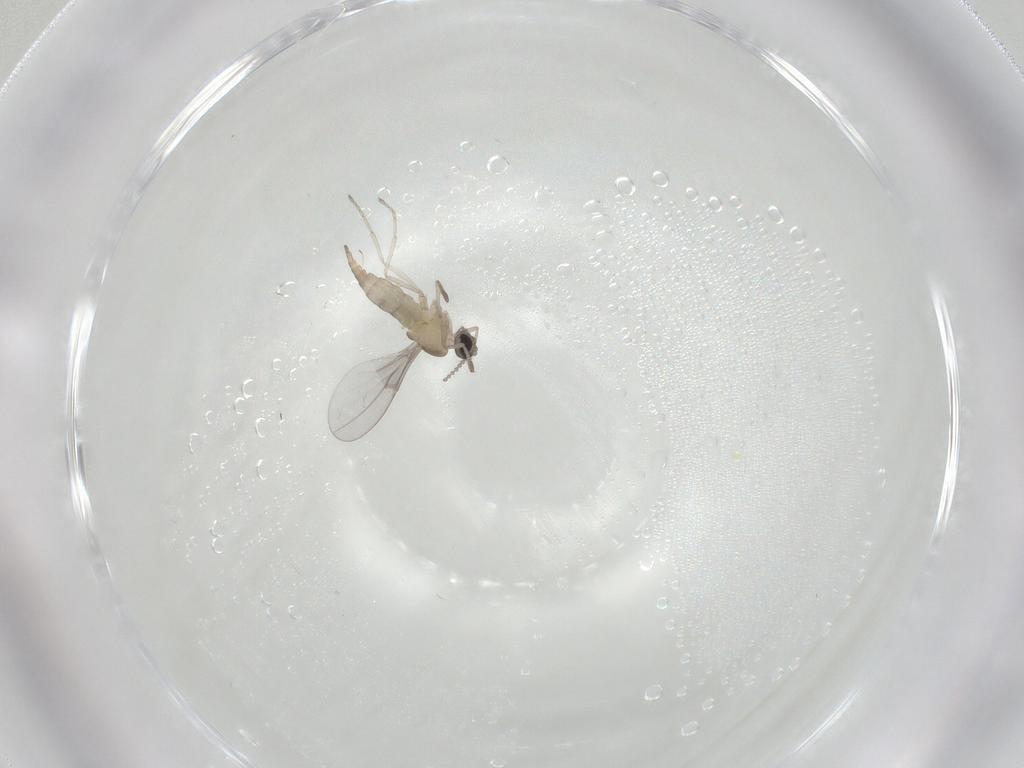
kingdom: Animalia
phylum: Arthropoda
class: Insecta
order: Diptera
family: Cecidomyiidae
